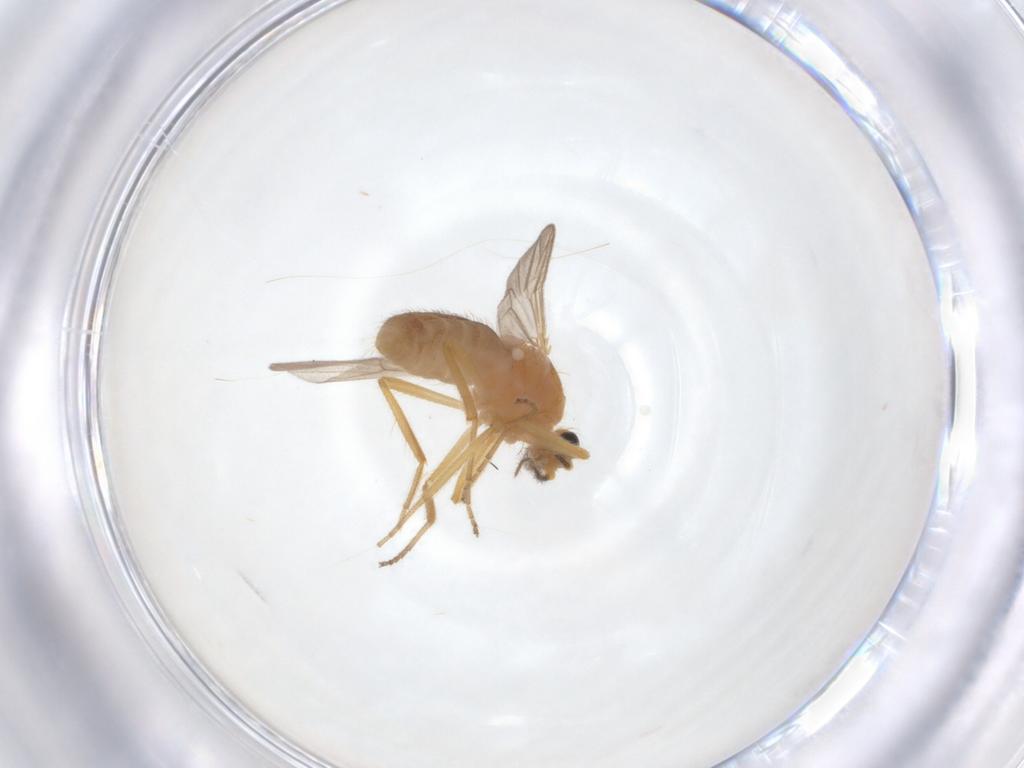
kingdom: Animalia
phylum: Arthropoda
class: Insecta
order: Diptera
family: Ceratopogonidae
